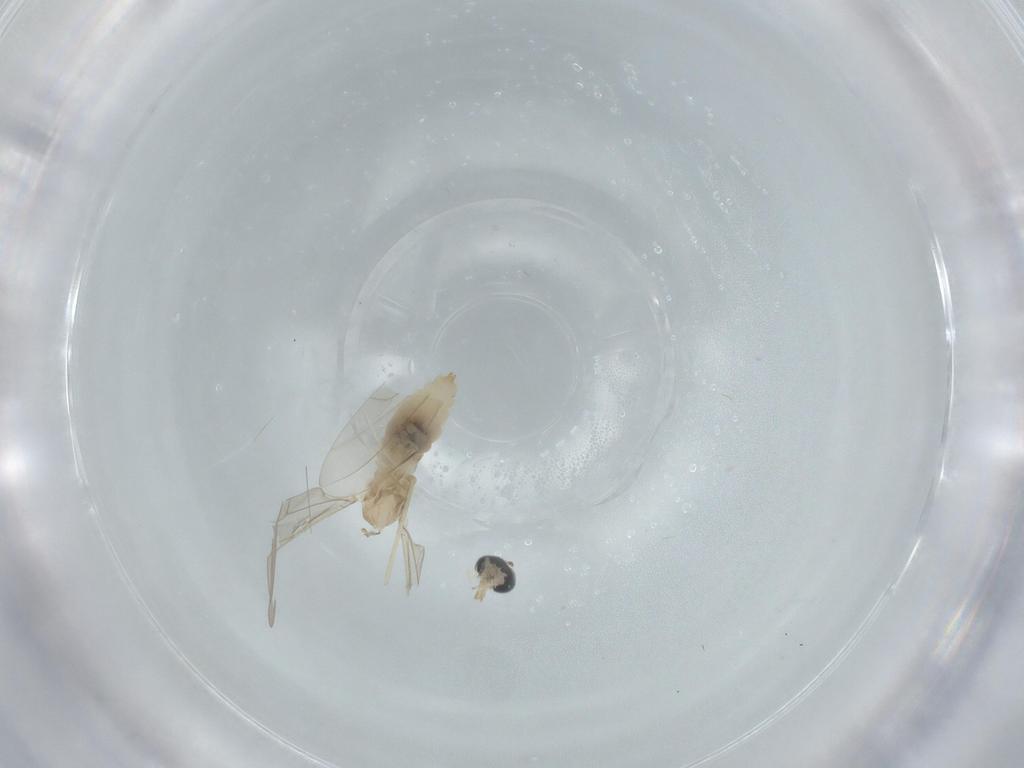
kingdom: Animalia
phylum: Arthropoda
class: Insecta
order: Diptera
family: Cecidomyiidae
